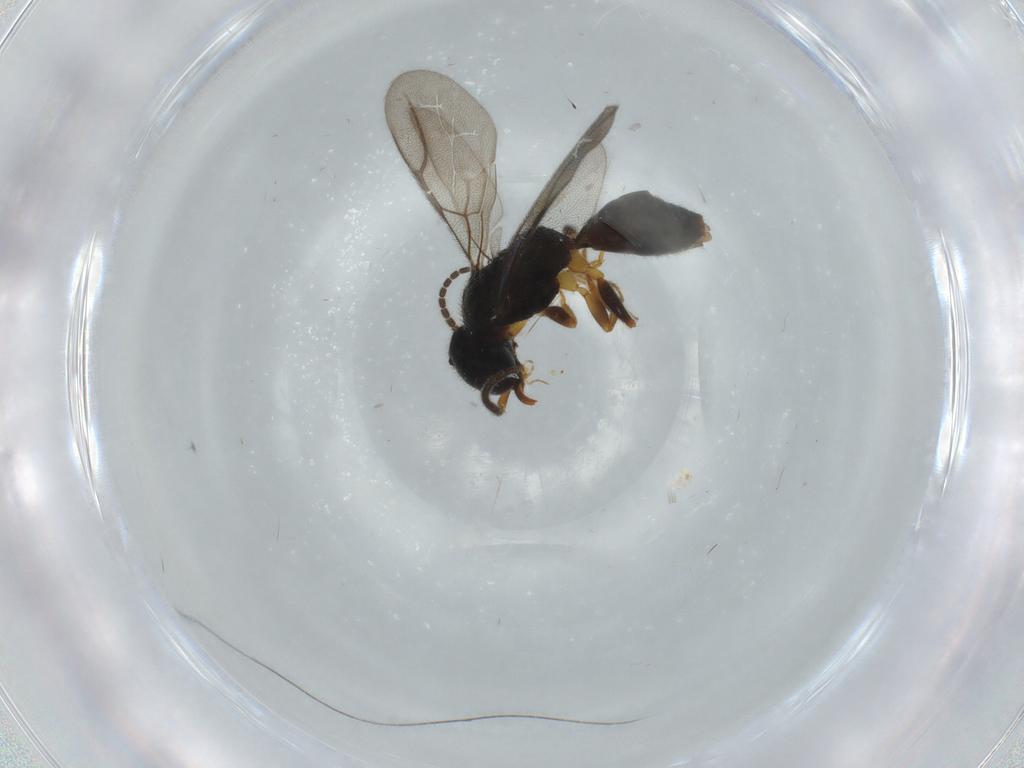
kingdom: Animalia
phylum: Arthropoda
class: Insecta
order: Hymenoptera
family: Bethylidae
